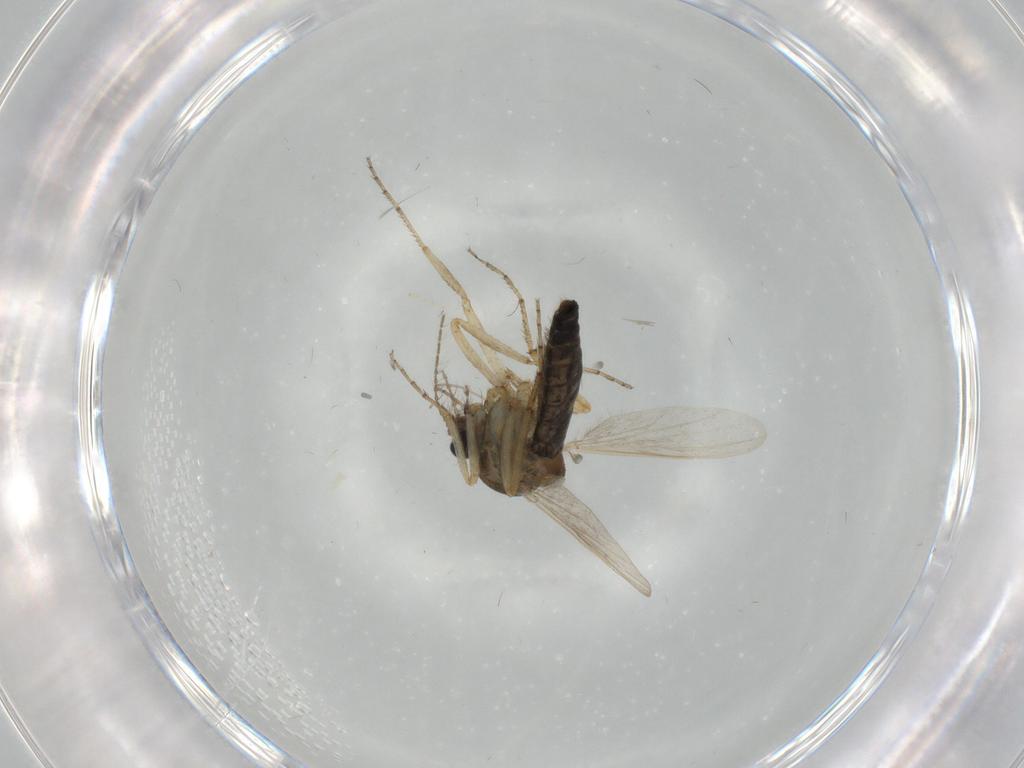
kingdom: Animalia
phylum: Arthropoda
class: Insecta
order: Diptera
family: Ceratopogonidae
